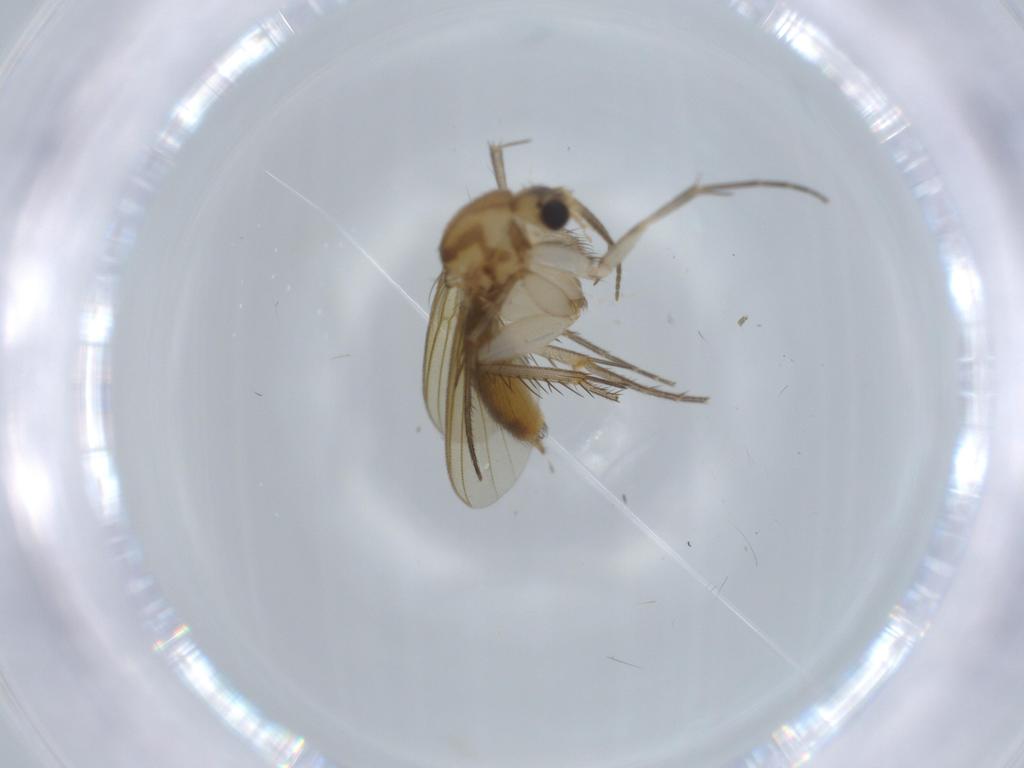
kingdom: Animalia
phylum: Arthropoda
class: Insecta
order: Diptera
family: Mycetophilidae
